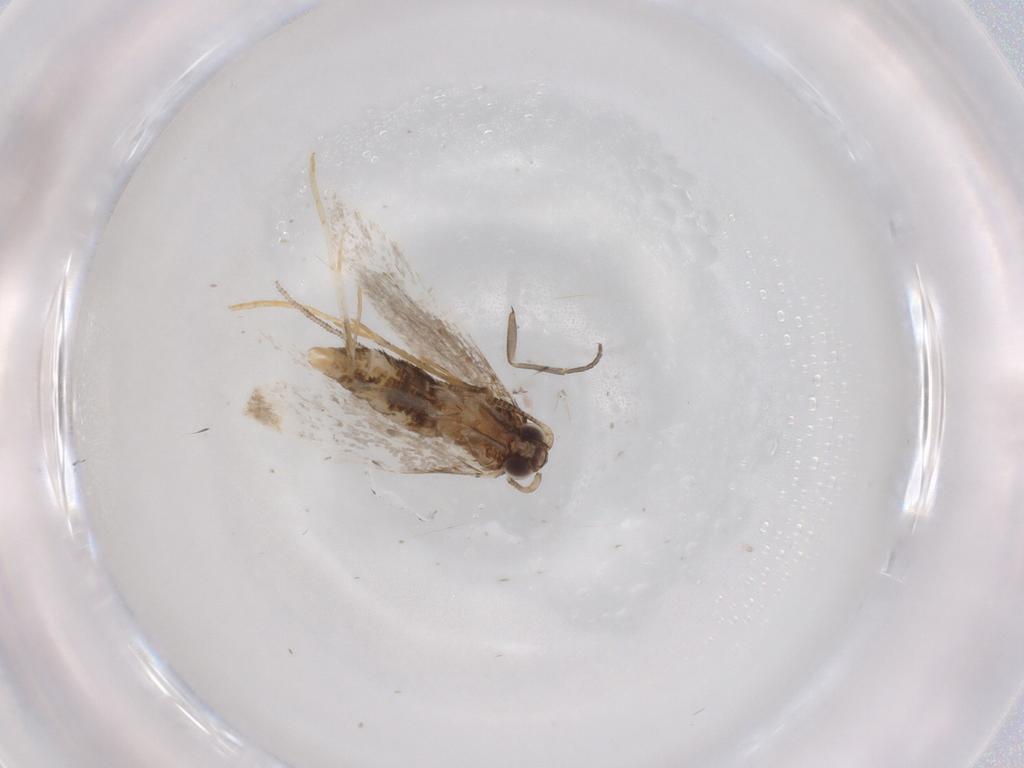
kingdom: Animalia
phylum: Arthropoda
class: Insecta
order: Lepidoptera
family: Tineidae
